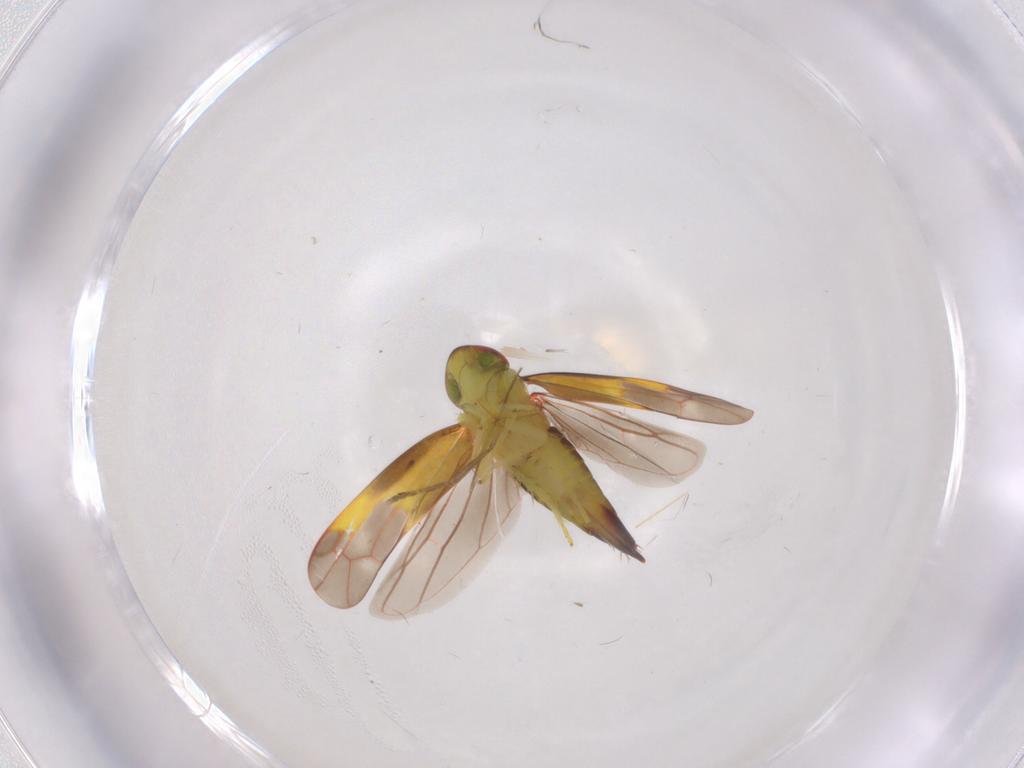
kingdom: Animalia
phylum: Arthropoda
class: Insecta
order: Hemiptera
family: Cicadellidae
